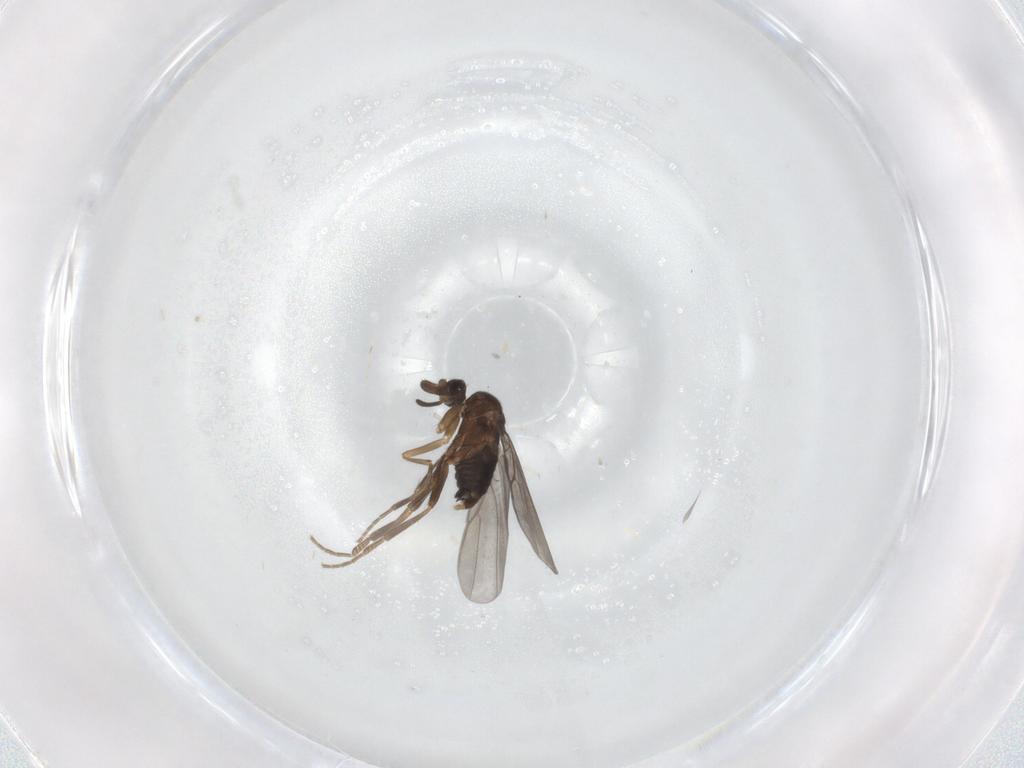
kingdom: Animalia
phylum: Arthropoda
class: Insecta
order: Diptera
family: Phoridae
